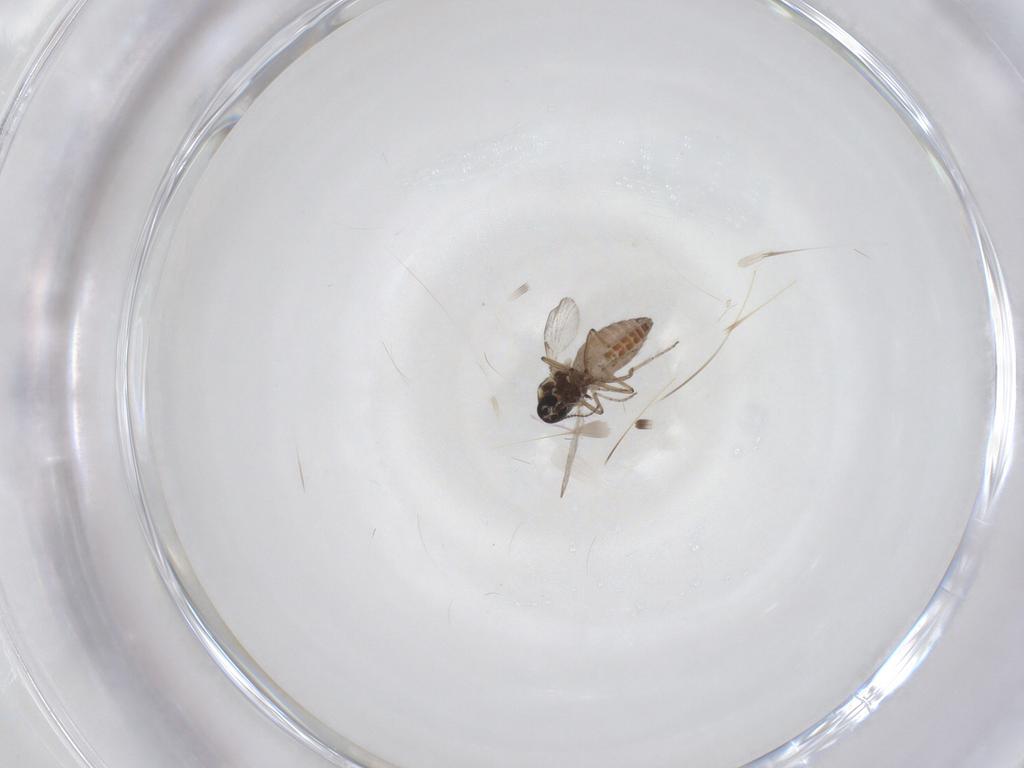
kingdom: Animalia
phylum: Arthropoda
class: Insecta
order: Diptera
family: Ceratopogonidae
